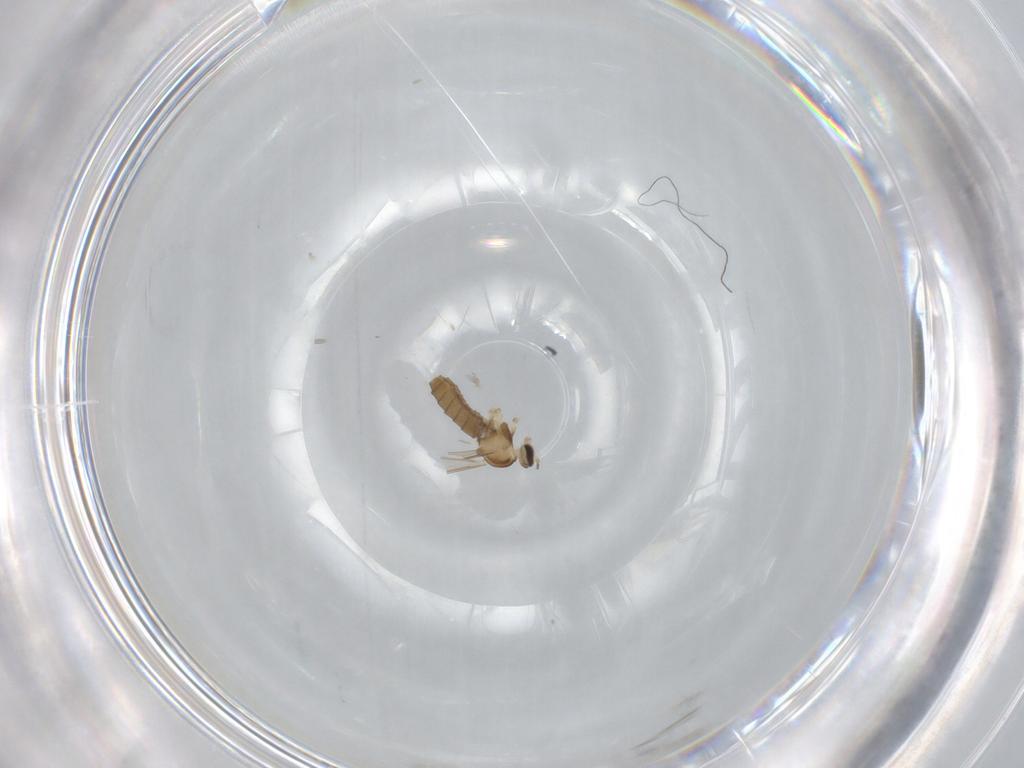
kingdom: Animalia
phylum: Arthropoda
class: Insecta
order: Diptera
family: Cecidomyiidae
